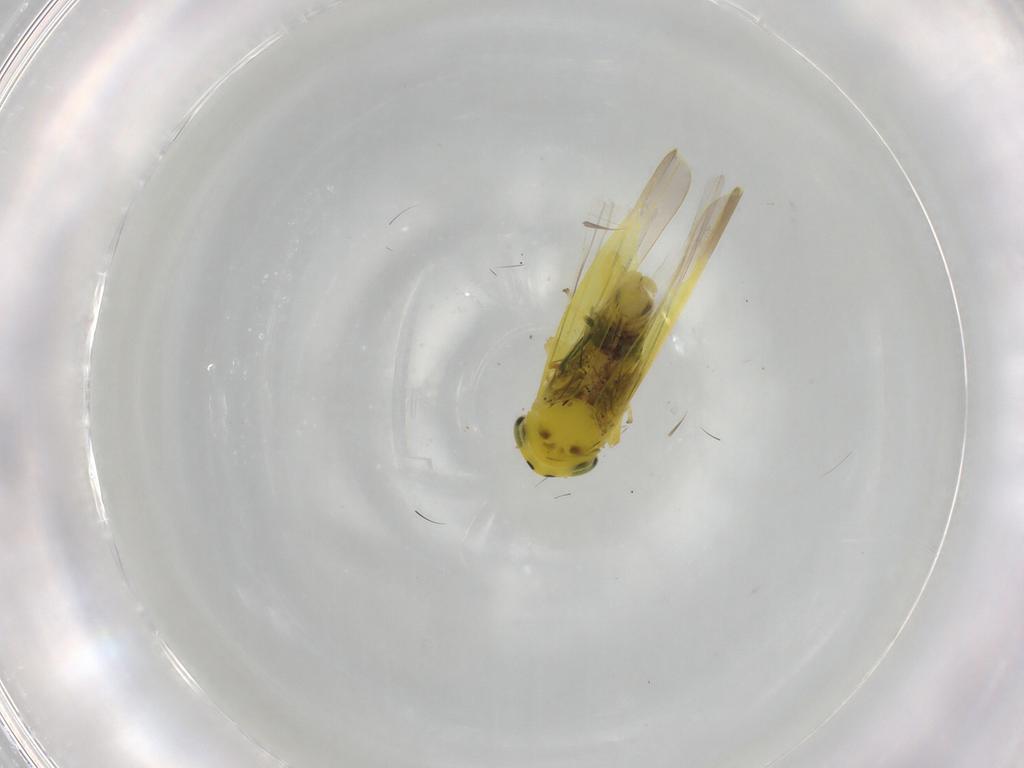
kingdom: Animalia
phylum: Arthropoda
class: Insecta
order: Hemiptera
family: Cicadellidae
